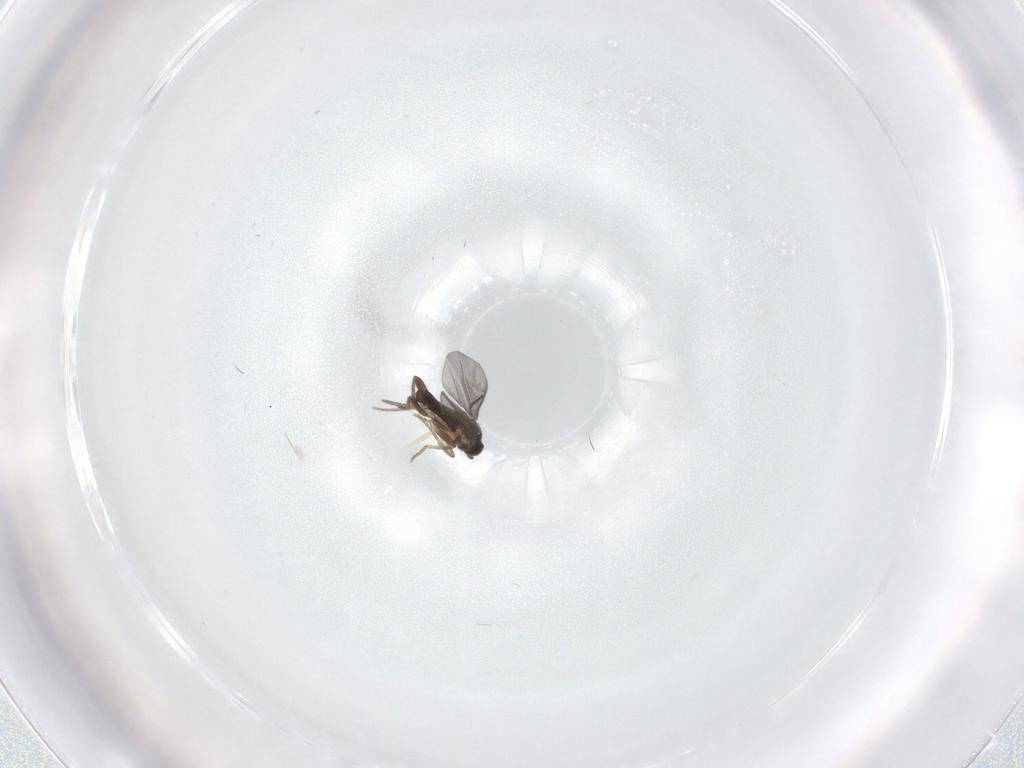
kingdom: Animalia
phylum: Arthropoda
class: Insecta
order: Diptera
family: Cecidomyiidae
